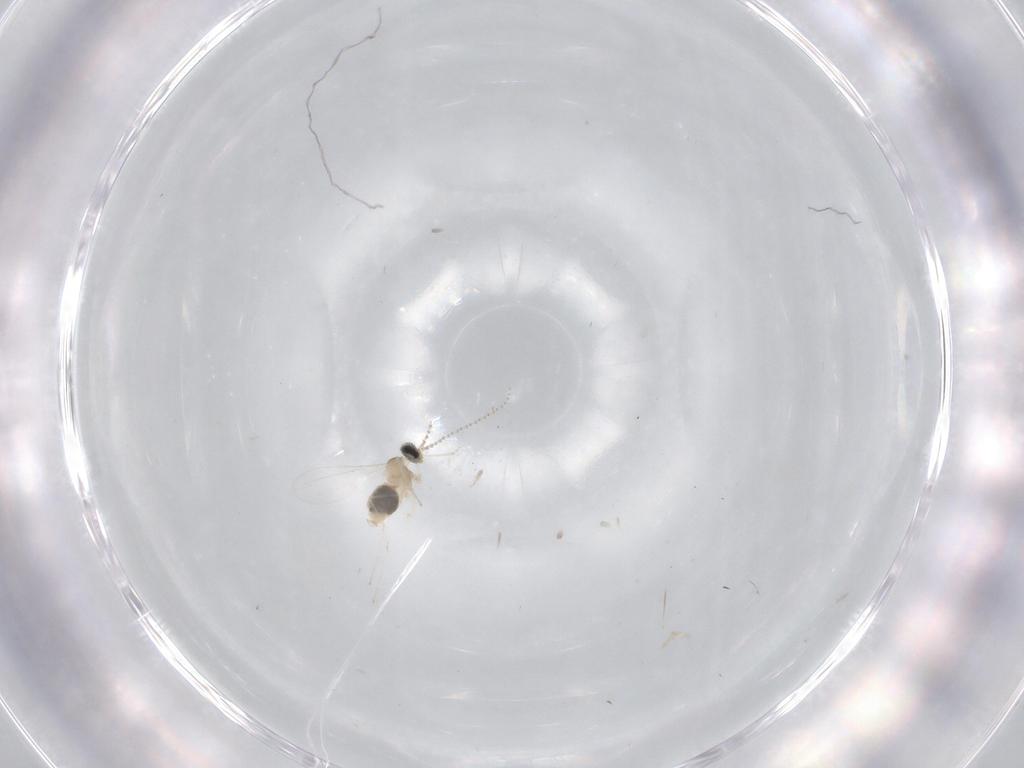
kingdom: Animalia
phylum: Arthropoda
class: Insecta
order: Diptera
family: Cecidomyiidae
